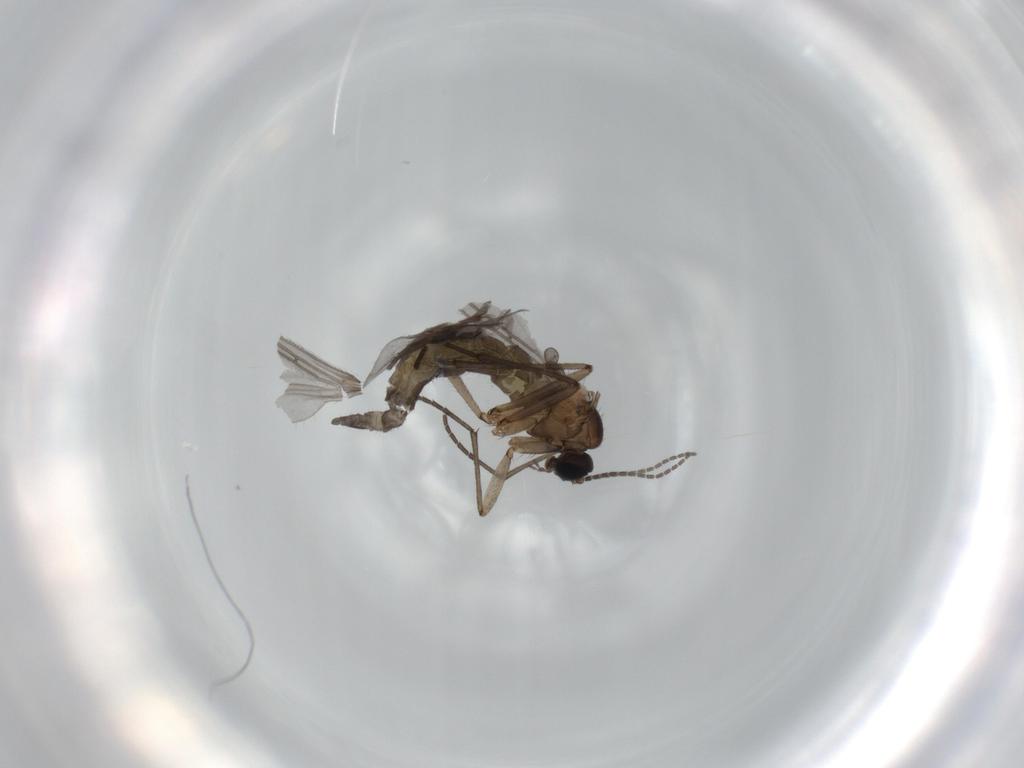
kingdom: Animalia
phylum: Arthropoda
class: Insecta
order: Diptera
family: Sciaridae
